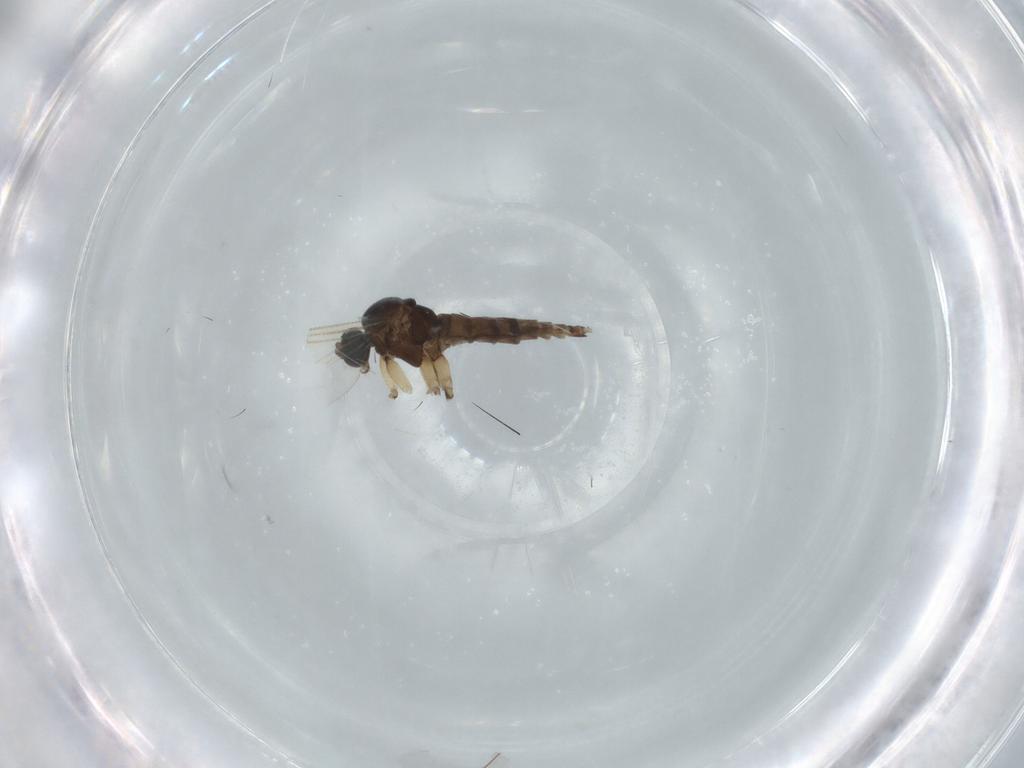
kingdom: Animalia
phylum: Arthropoda
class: Insecta
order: Diptera
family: Sciaridae
